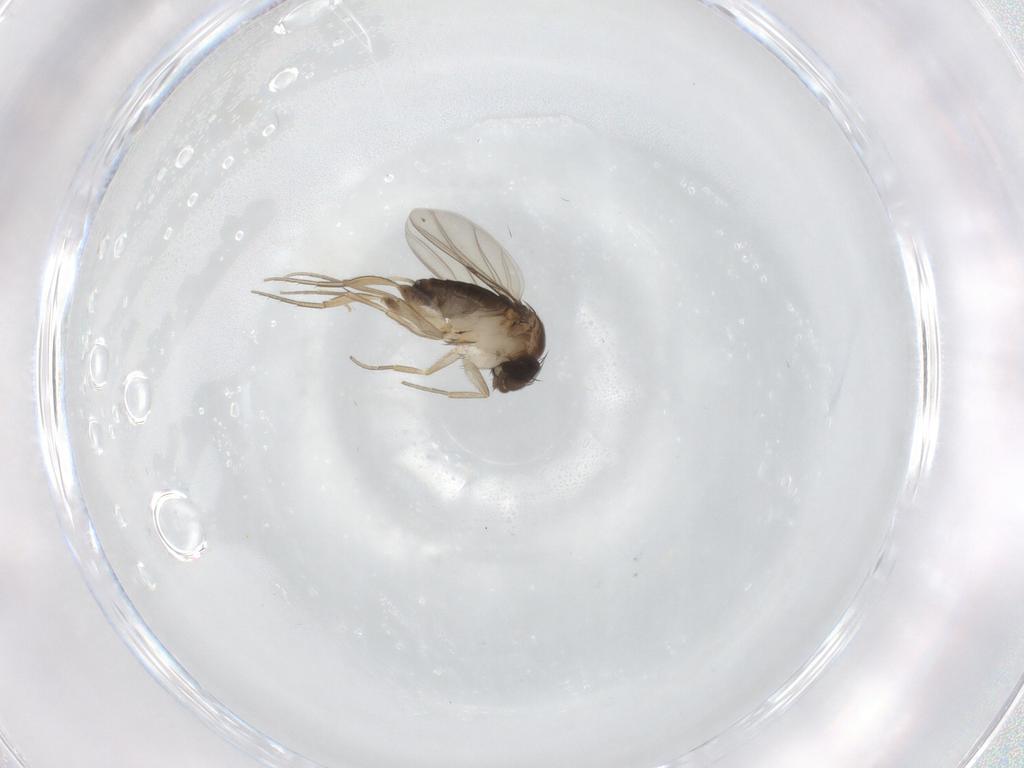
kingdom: Animalia
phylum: Arthropoda
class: Insecta
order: Diptera
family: Phoridae
